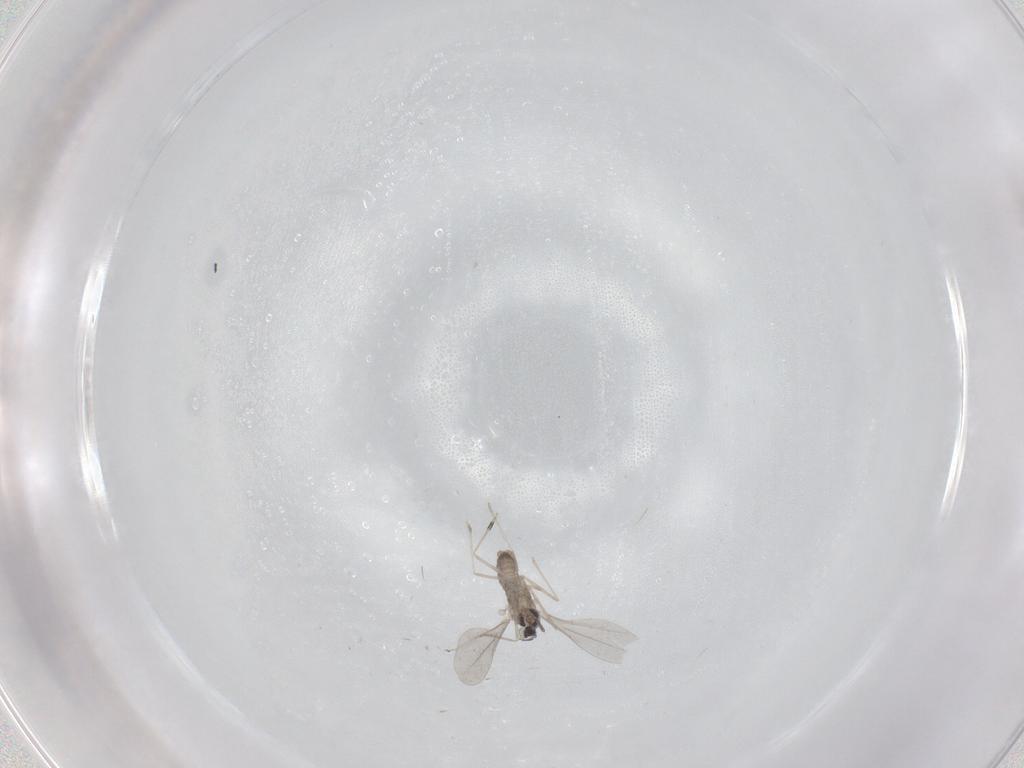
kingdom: Animalia
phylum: Arthropoda
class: Insecta
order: Diptera
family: Cecidomyiidae
